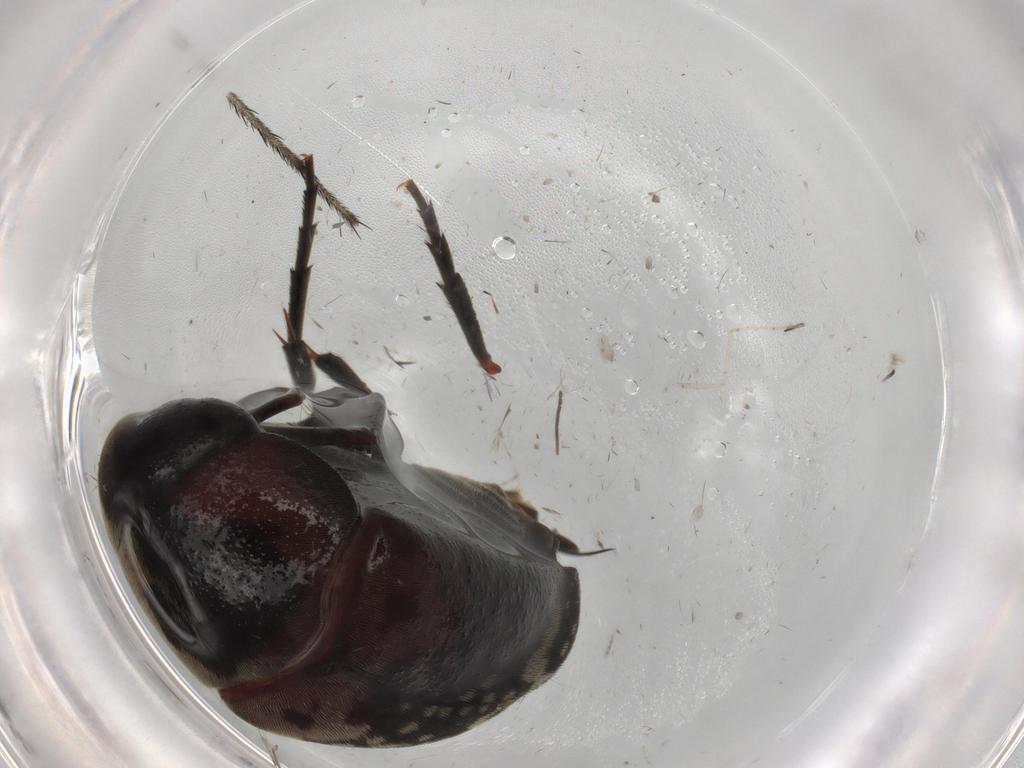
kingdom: Animalia
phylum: Arthropoda
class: Insecta
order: Coleoptera
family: Coccinellidae
